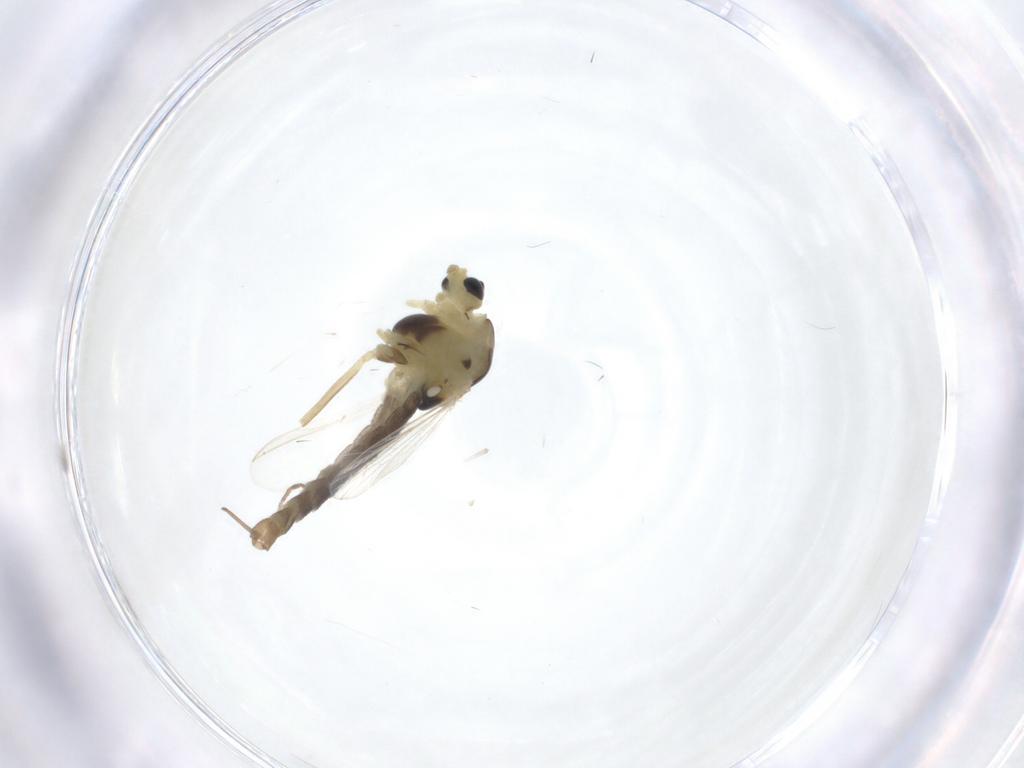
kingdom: Animalia
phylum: Arthropoda
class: Insecta
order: Diptera
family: Chironomidae
